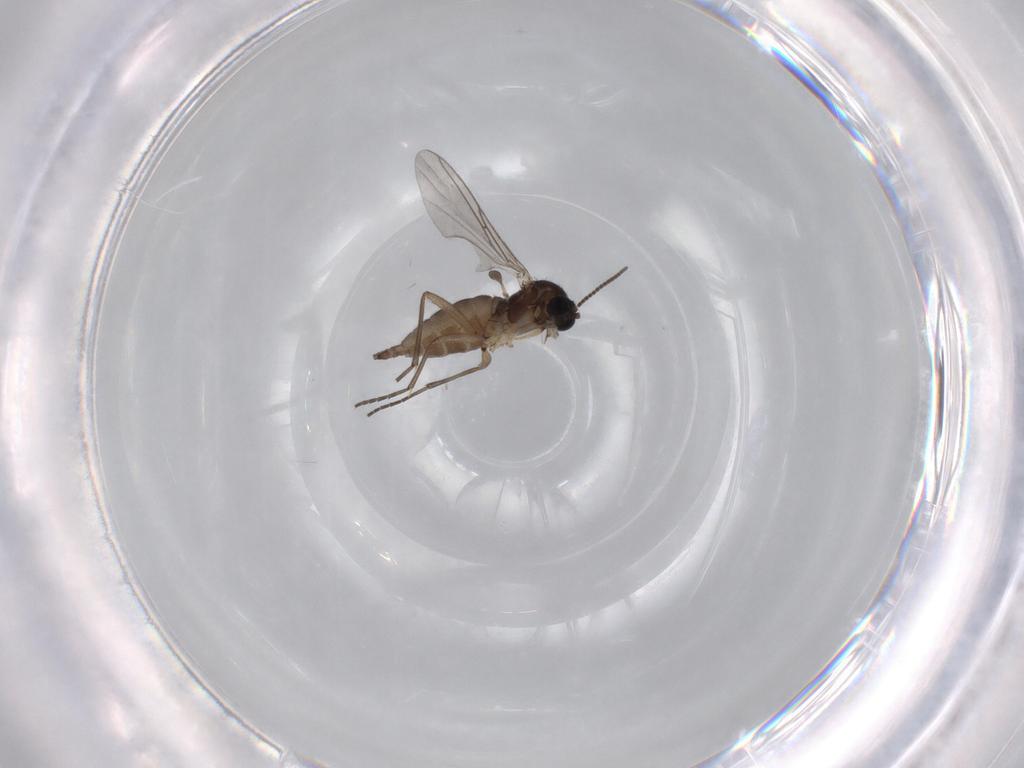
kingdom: Animalia
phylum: Arthropoda
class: Insecta
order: Diptera
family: Sciaridae
